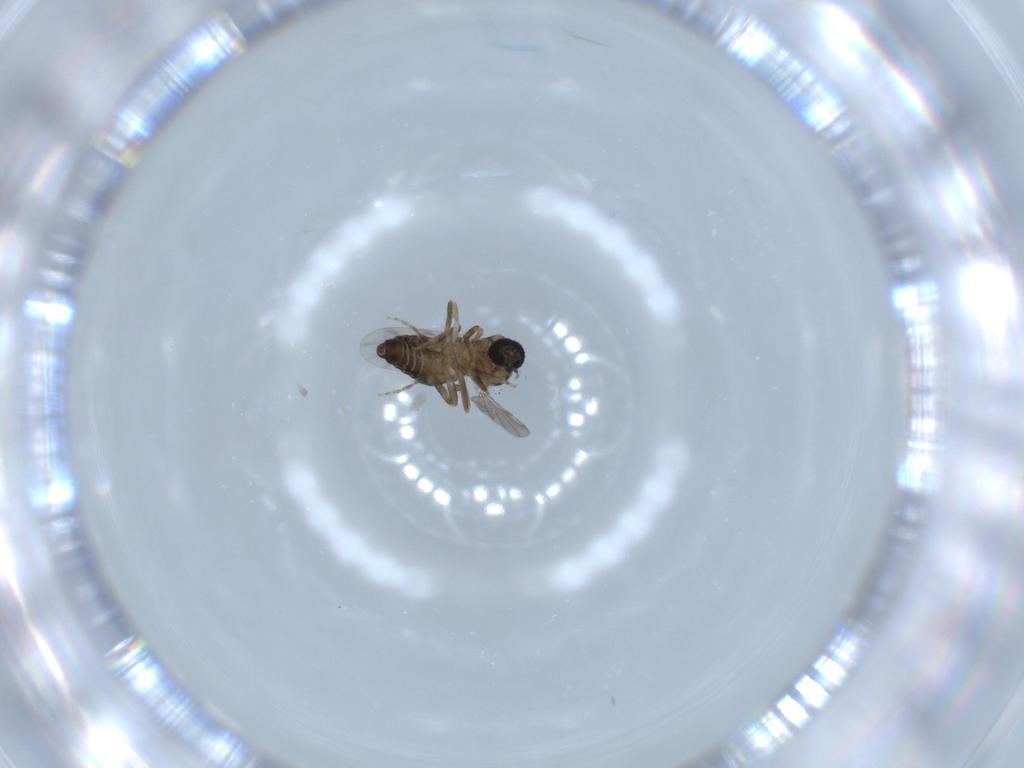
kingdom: Animalia
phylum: Arthropoda
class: Insecta
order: Diptera
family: Ceratopogonidae
